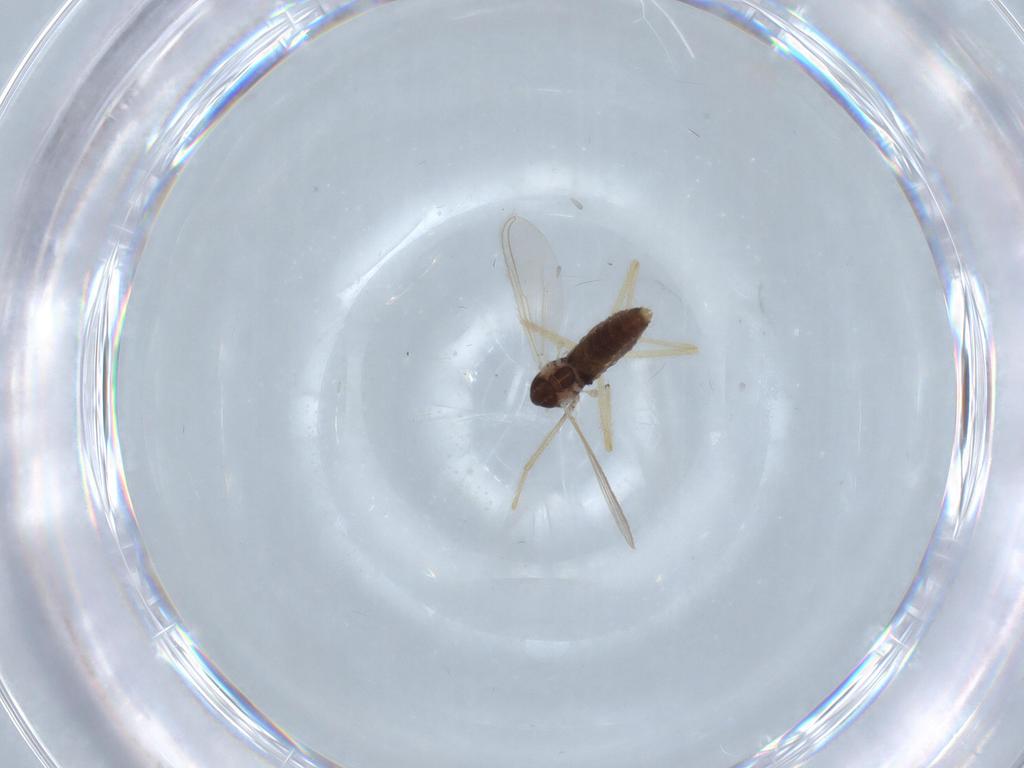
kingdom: Animalia
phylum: Arthropoda
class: Insecta
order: Diptera
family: Chironomidae
